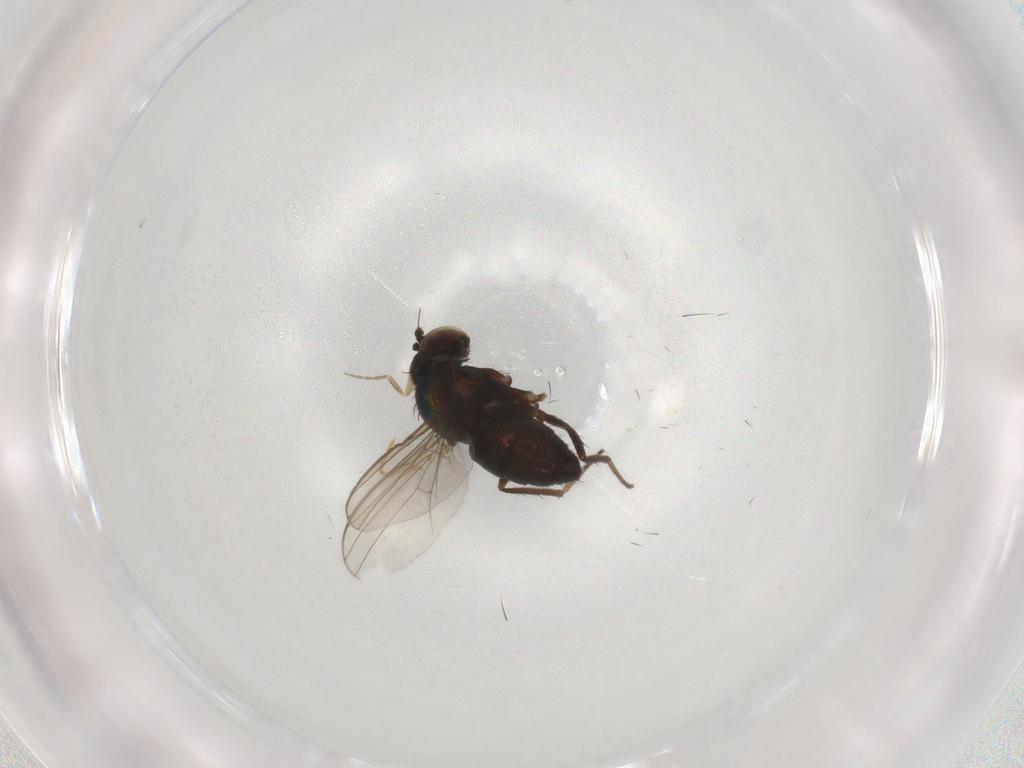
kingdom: Animalia
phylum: Arthropoda
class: Insecta
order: Diptera
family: Dolichopodidae
